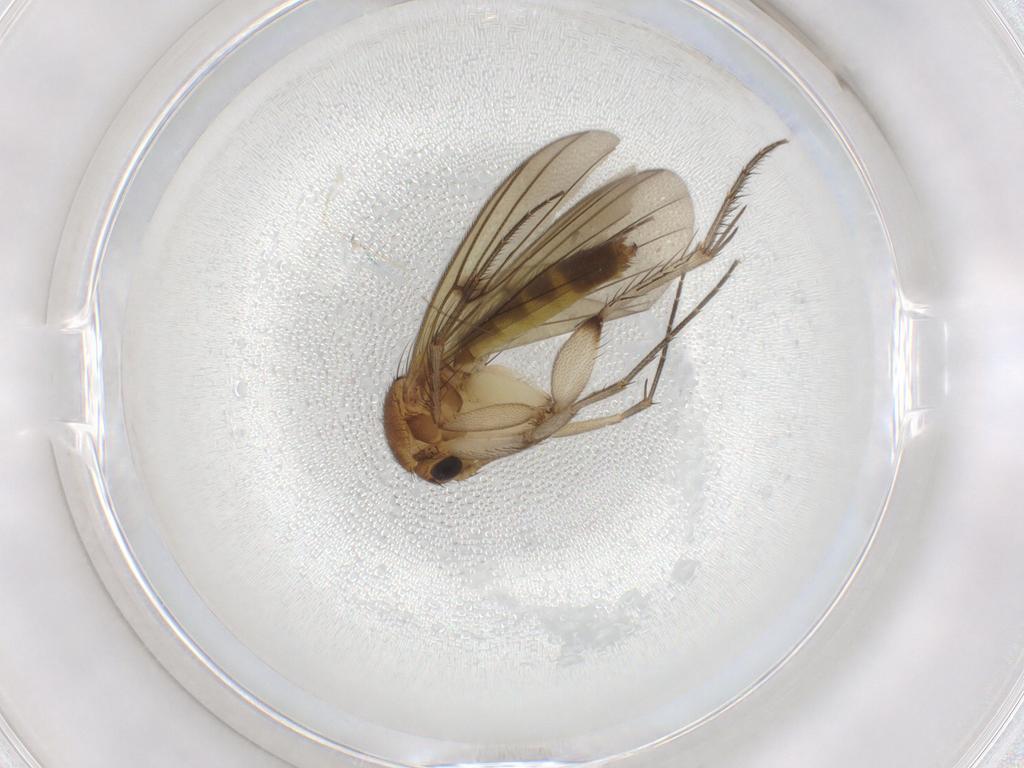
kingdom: Animalia
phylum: Arthropoda
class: Insecta
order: Diptera
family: Mycetophilidae
